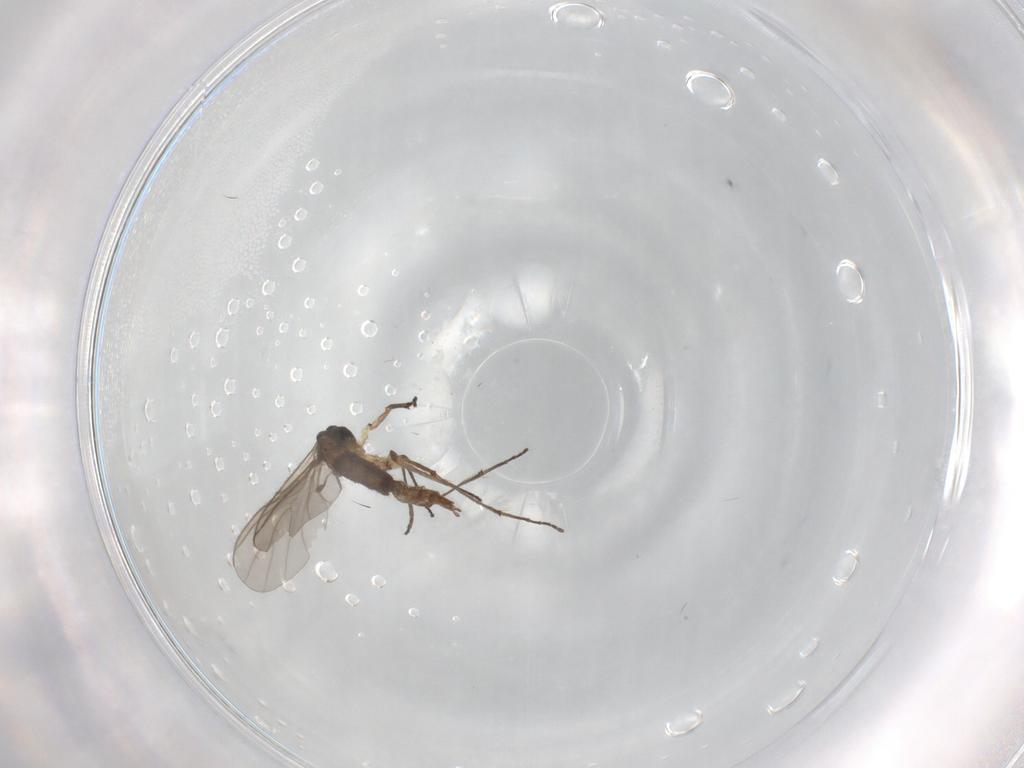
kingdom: Animalia
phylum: Arthropoda
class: Insecta
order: Diptera
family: Sciaridae
